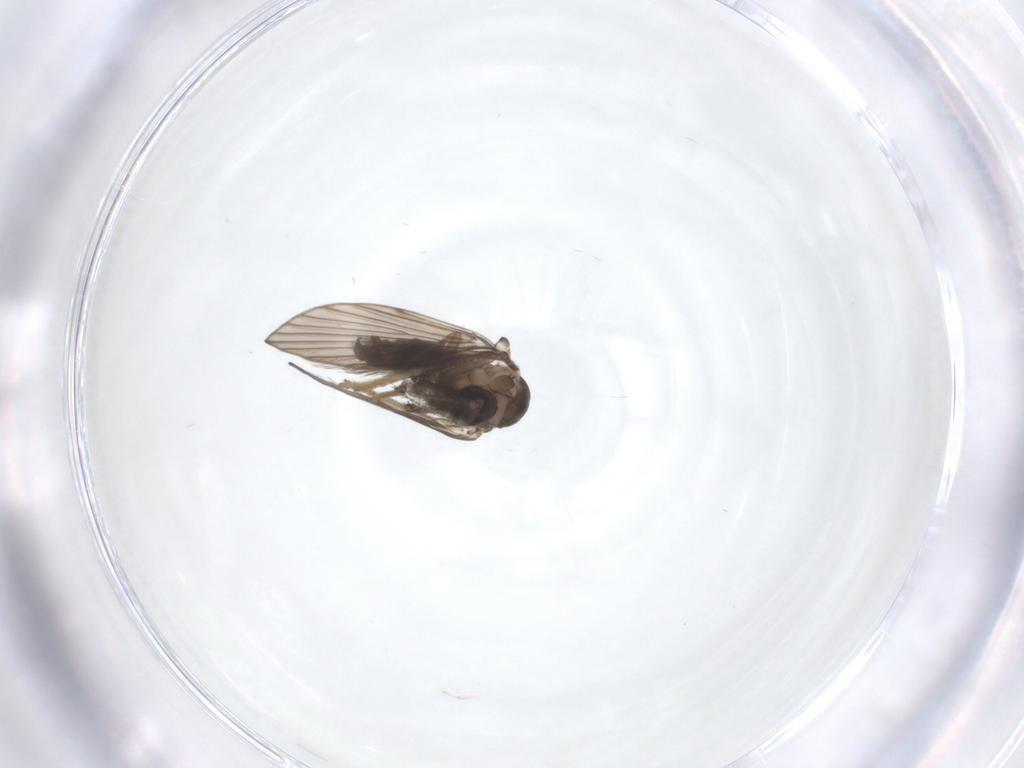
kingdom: Animalia
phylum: Arthropoda
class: Insecta
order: Diptera
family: Psychodidae
